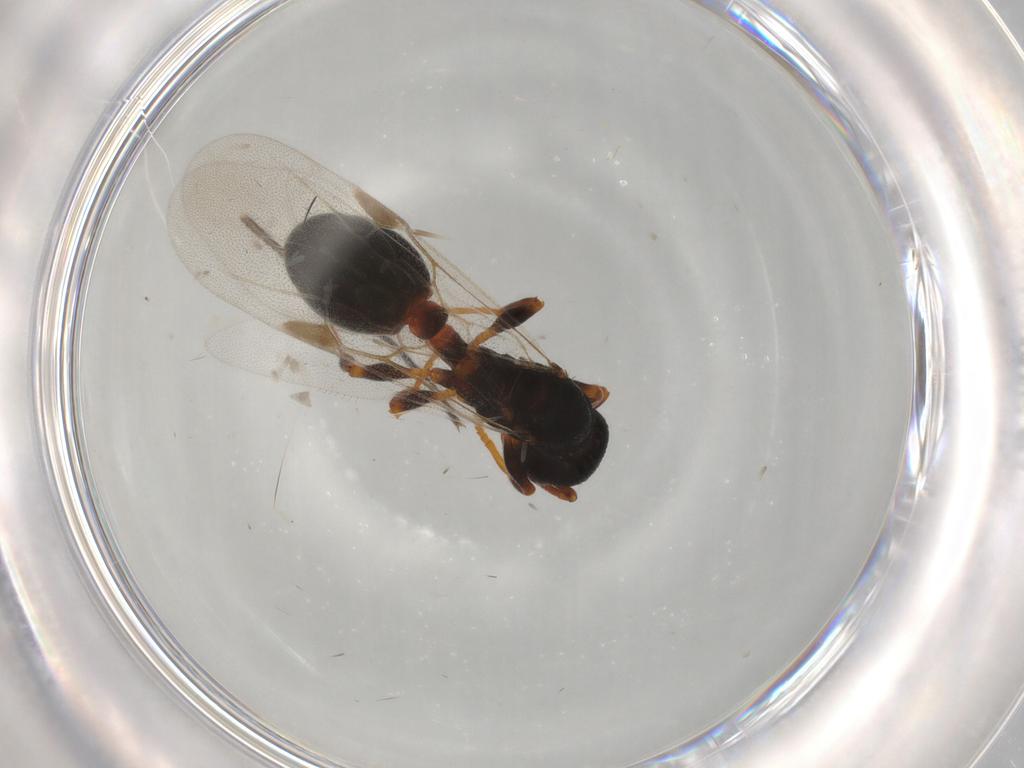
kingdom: Animalia
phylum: Arthropoda
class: Insecta
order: Hymenoptera
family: Formicidae
